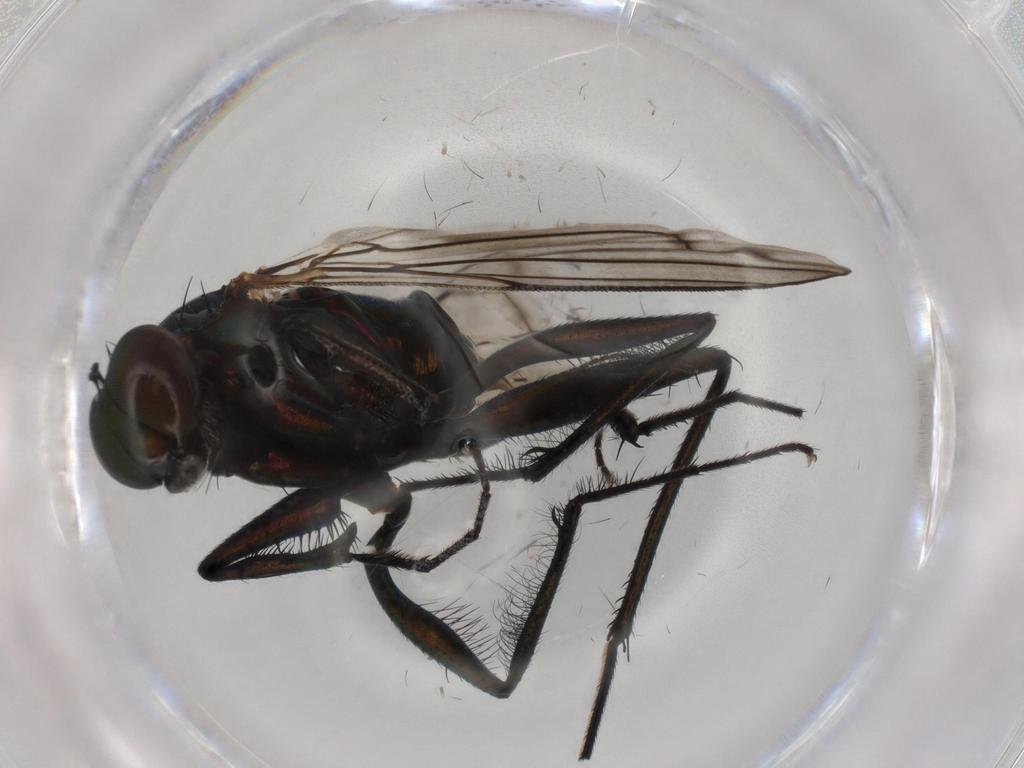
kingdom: Animalia
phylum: Arthropoda
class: Insecta
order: Diptera
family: Dolichopodidae
